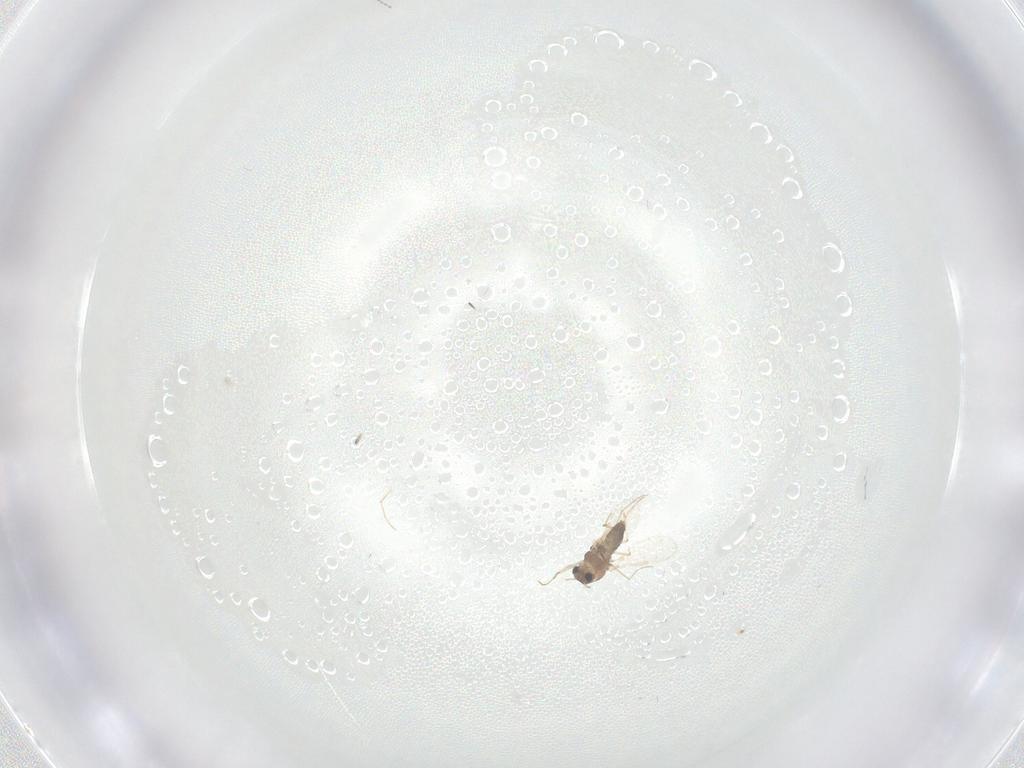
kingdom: Animalia
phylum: Arthropoda
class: Insecta
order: Diptera
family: Chironomidae
